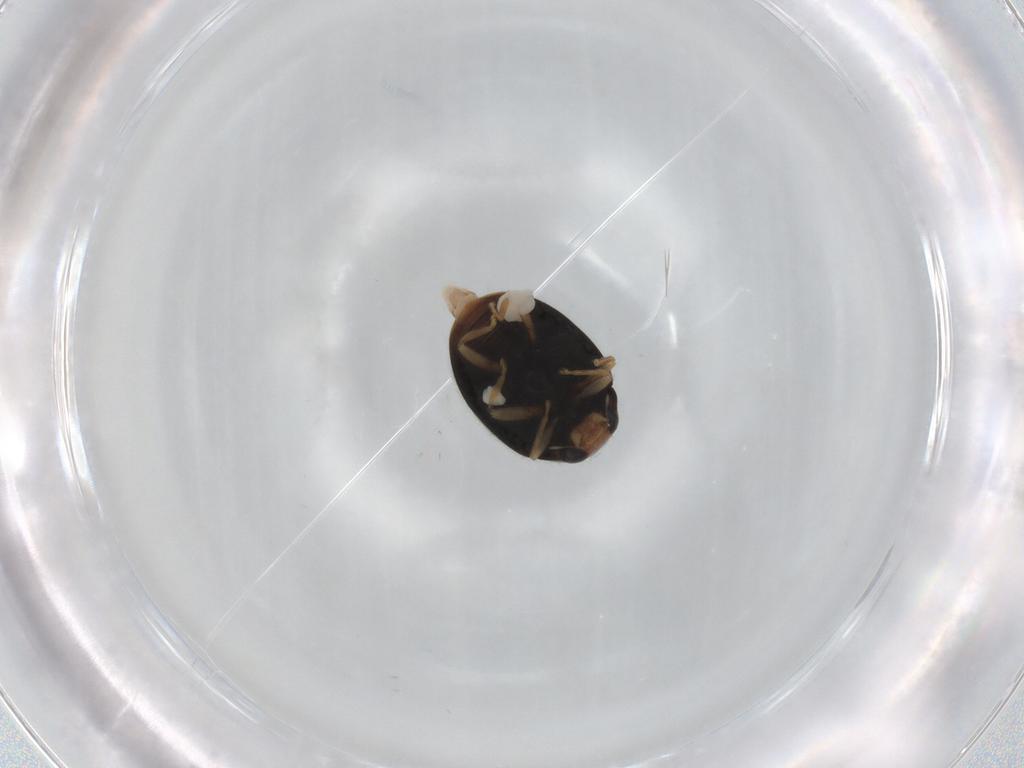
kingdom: Animalia
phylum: Arthropoda
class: Insecta
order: Coleoptera
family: Coccinellidae
